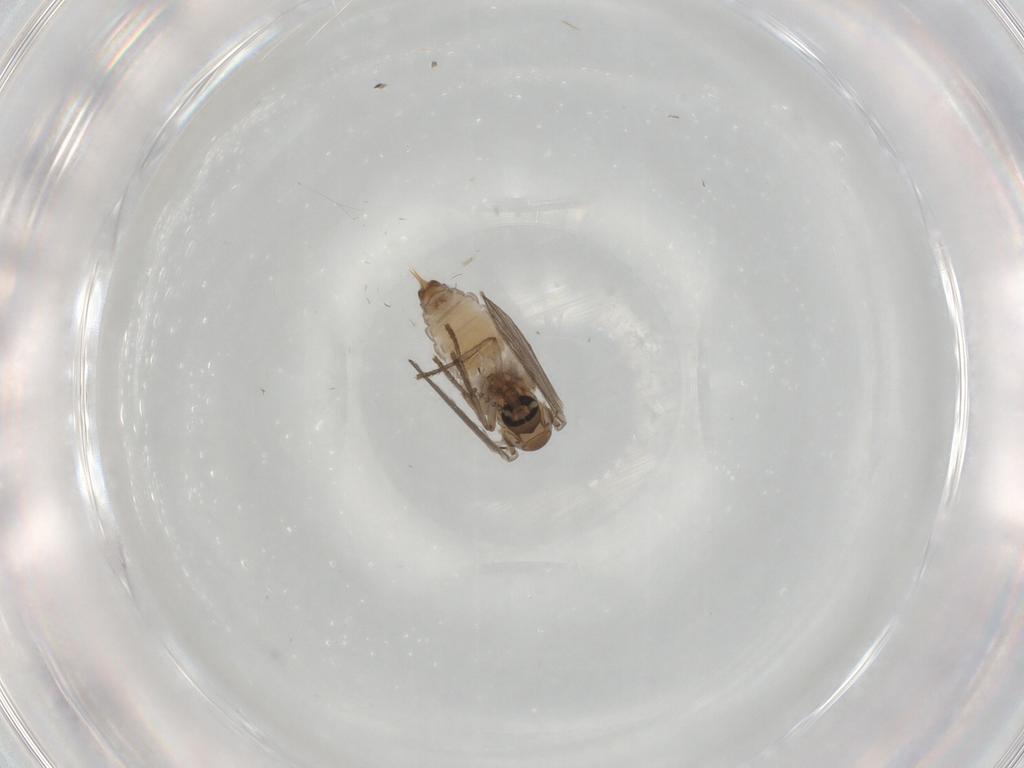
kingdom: Animalia
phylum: Arthropoda
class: Insecta
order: Diptera
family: Psychodidae
